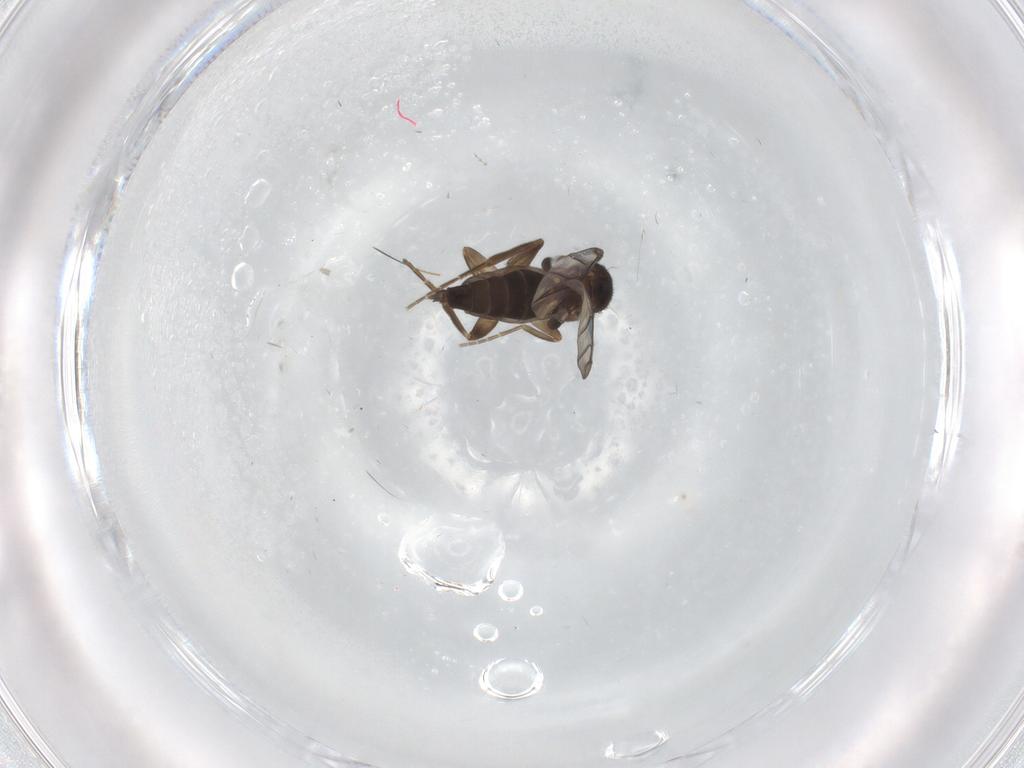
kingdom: Animalia
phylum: Arthropoda
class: Insecta
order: Diptera
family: Phoridae
